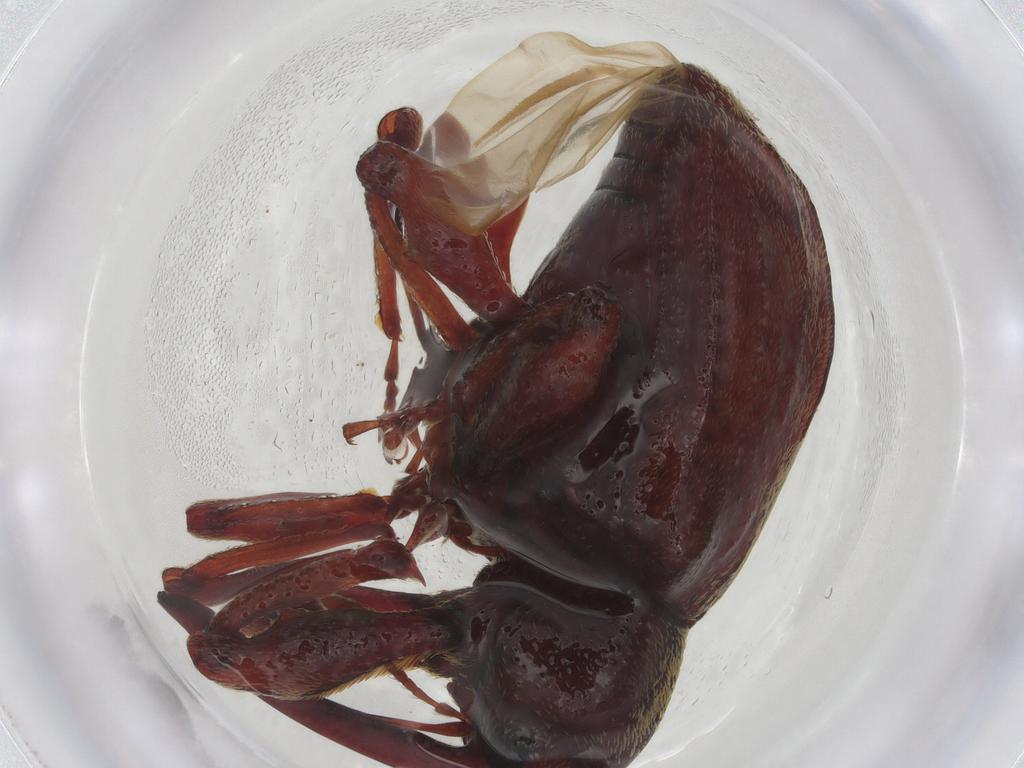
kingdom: Animalia
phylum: Arthropoda
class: Insecta
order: Coleoptera
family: Curculionidae
